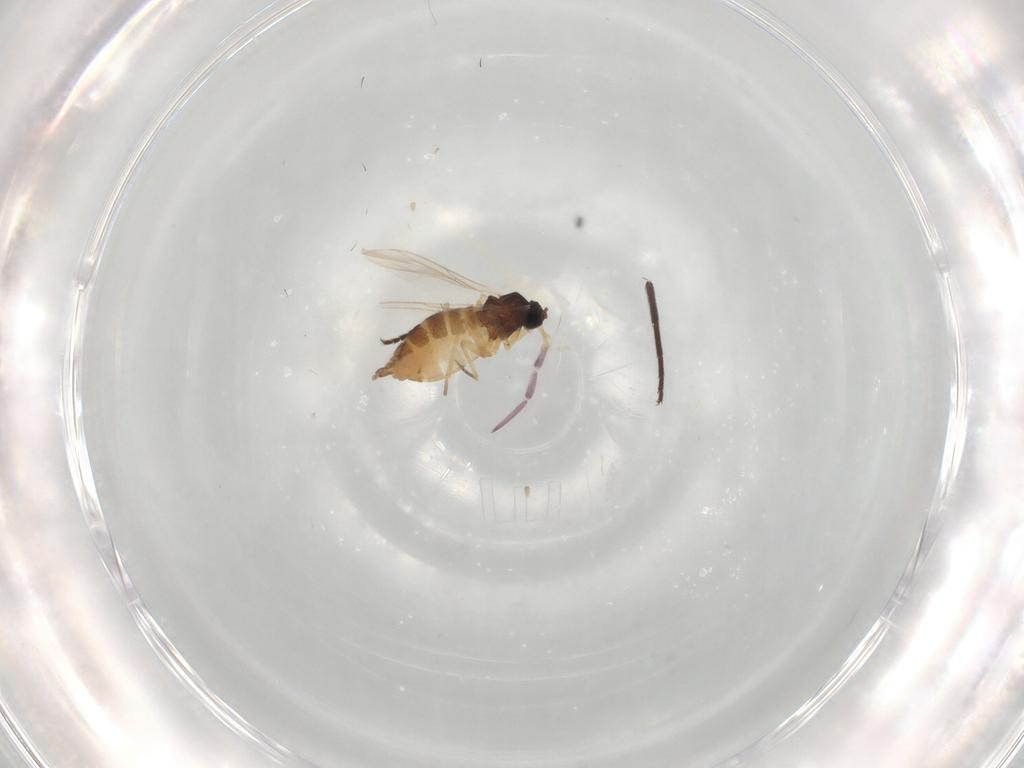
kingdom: Animalia
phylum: Arthropoda
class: Insecta
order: Diptera
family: Dolichopodidae
